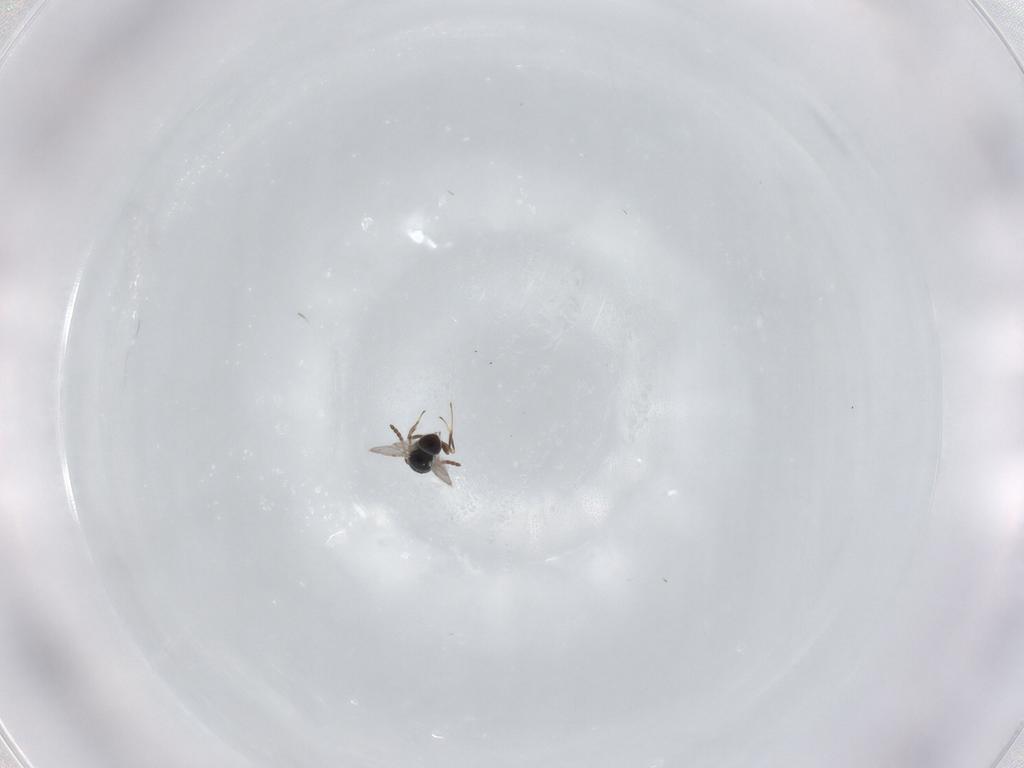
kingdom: Animalia
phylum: Arthropoda
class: Insecta
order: Hymenoptera
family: Scelionidae
